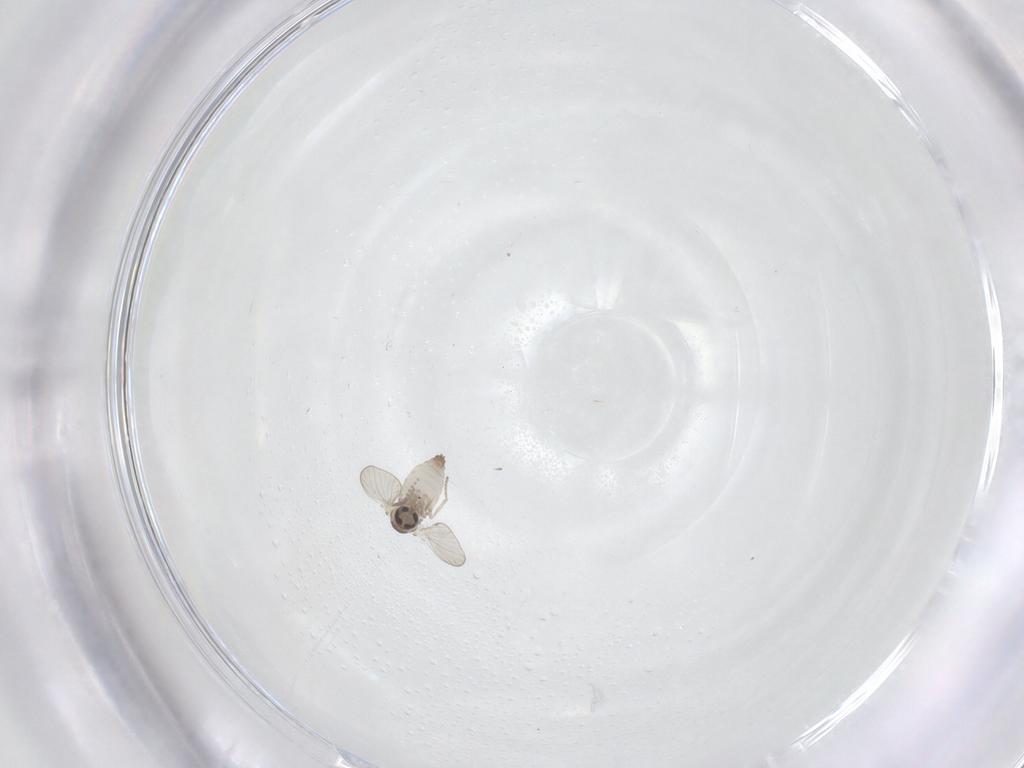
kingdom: Animalia
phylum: Arthropoda
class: Insecta
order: Diptera
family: Psychodidae
